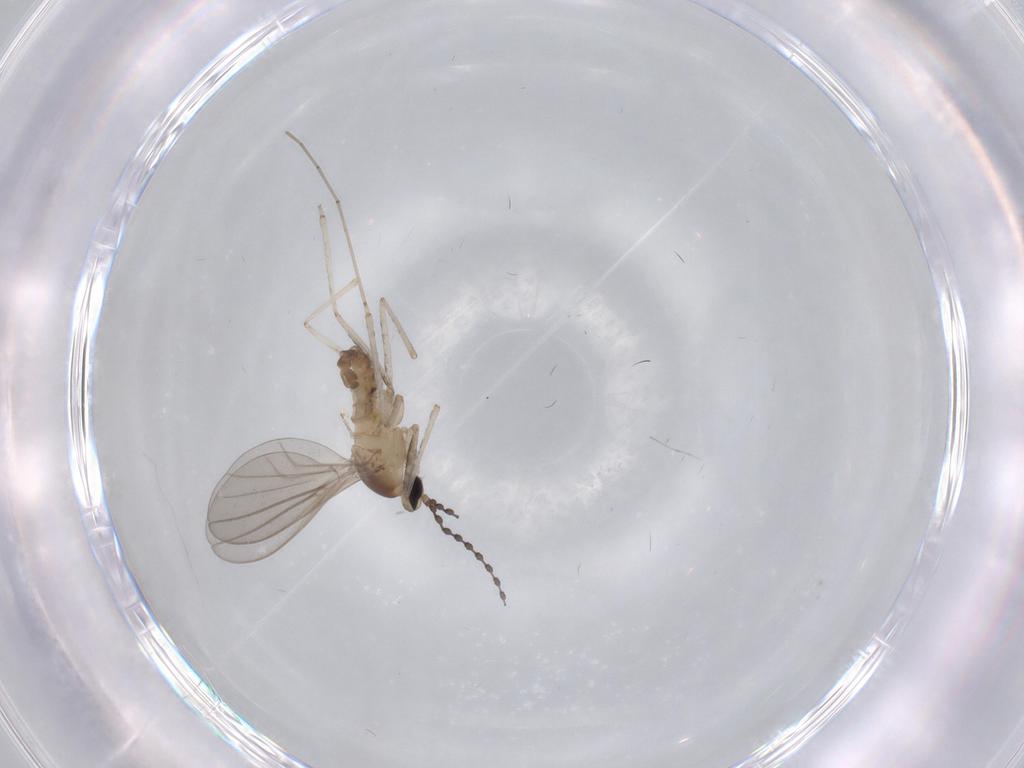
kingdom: Animalia
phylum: Arthropoda
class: Insecta
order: Diptera
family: Cecidomyiidae
